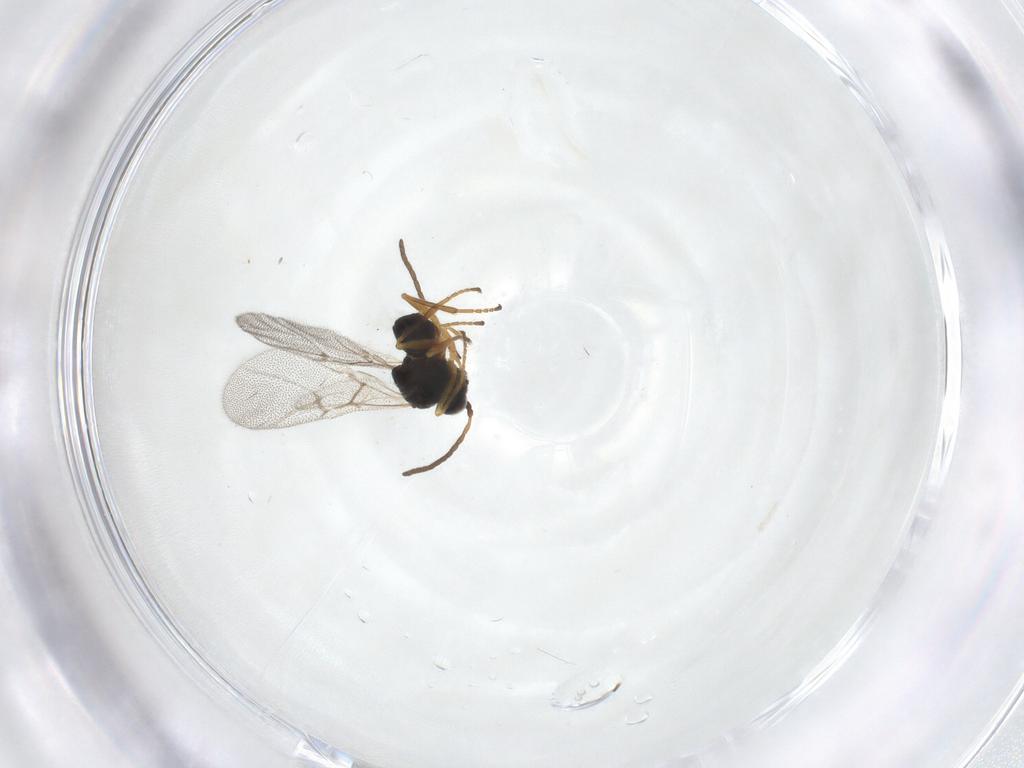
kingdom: Animalia
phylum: Arthropoda
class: Insecta
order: Hymenoptera
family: Cynipidae
